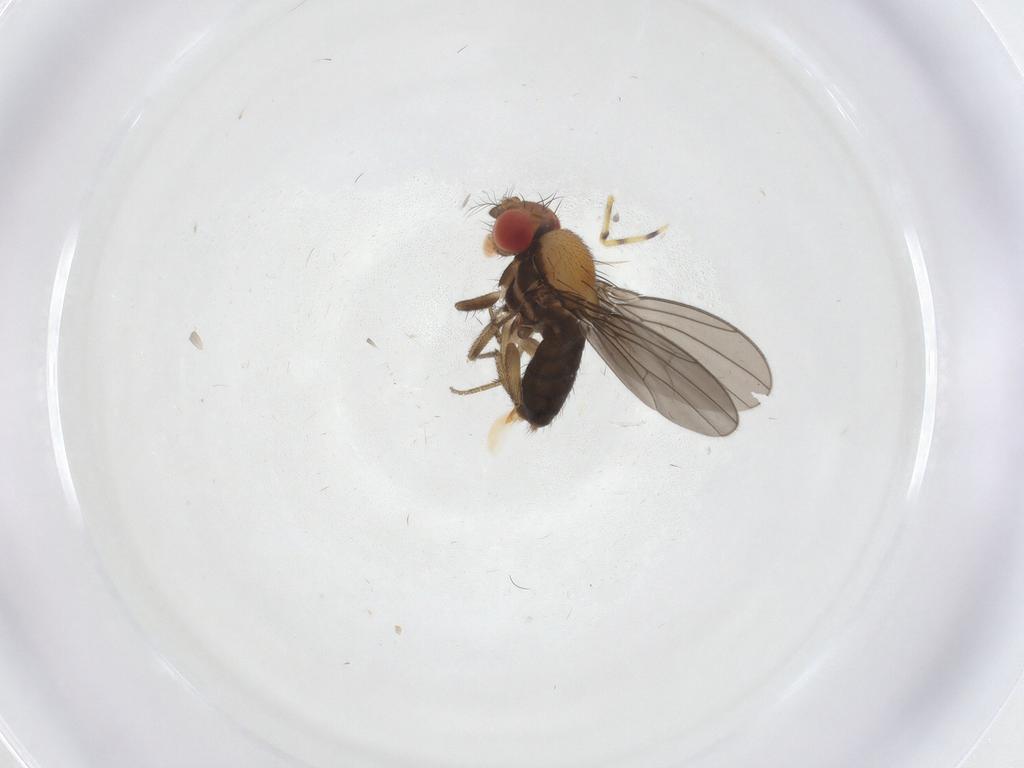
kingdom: Animalia
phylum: Arthropoda
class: Insecta
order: Diptera
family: Drosophilidae
